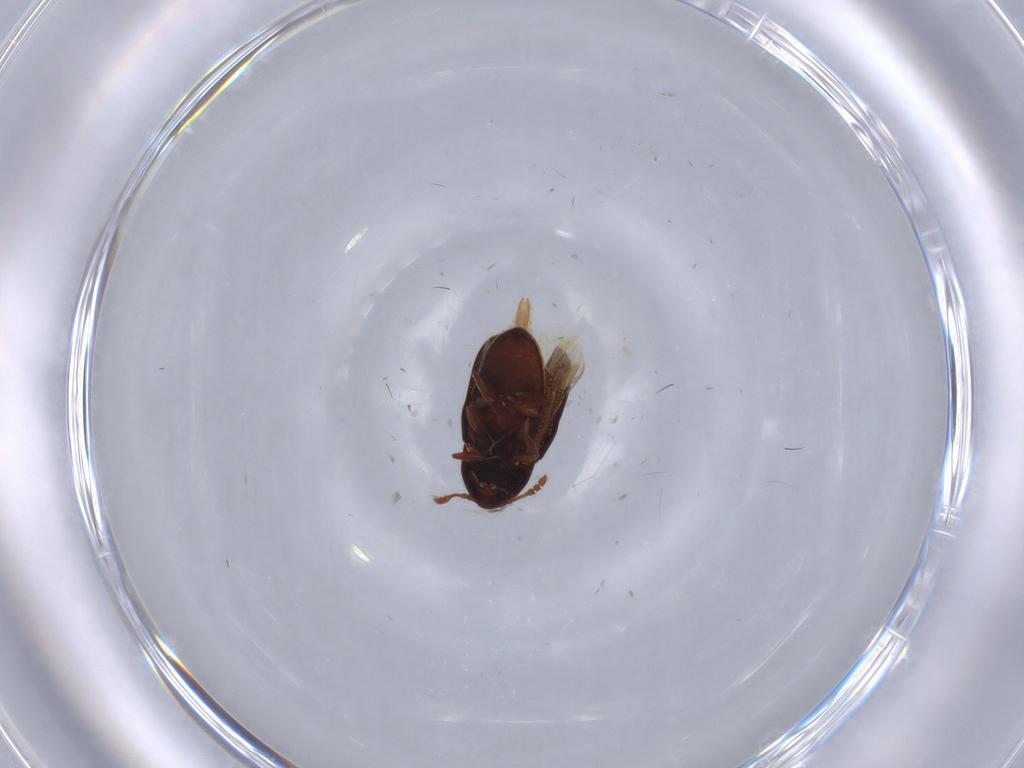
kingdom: Animalia
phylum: Arthropoda
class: Insecta
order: Coleoptera
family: Throscidae
